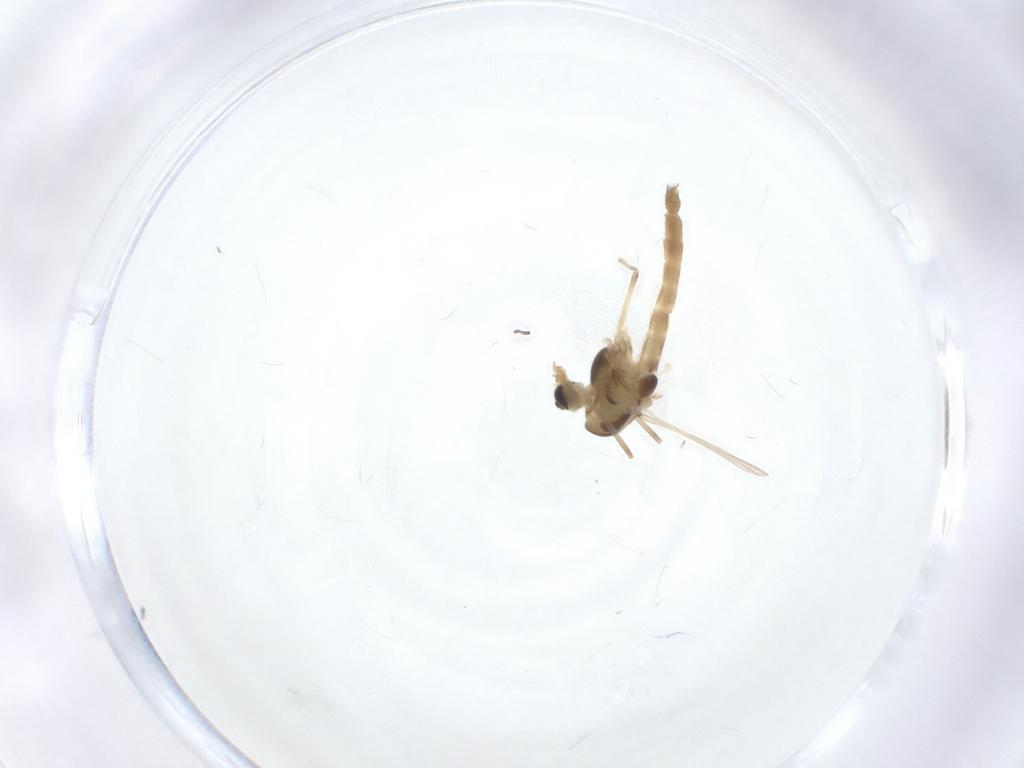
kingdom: Animalia
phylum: Arthropoda
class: Insecta
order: Diptera
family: Chironomidae
